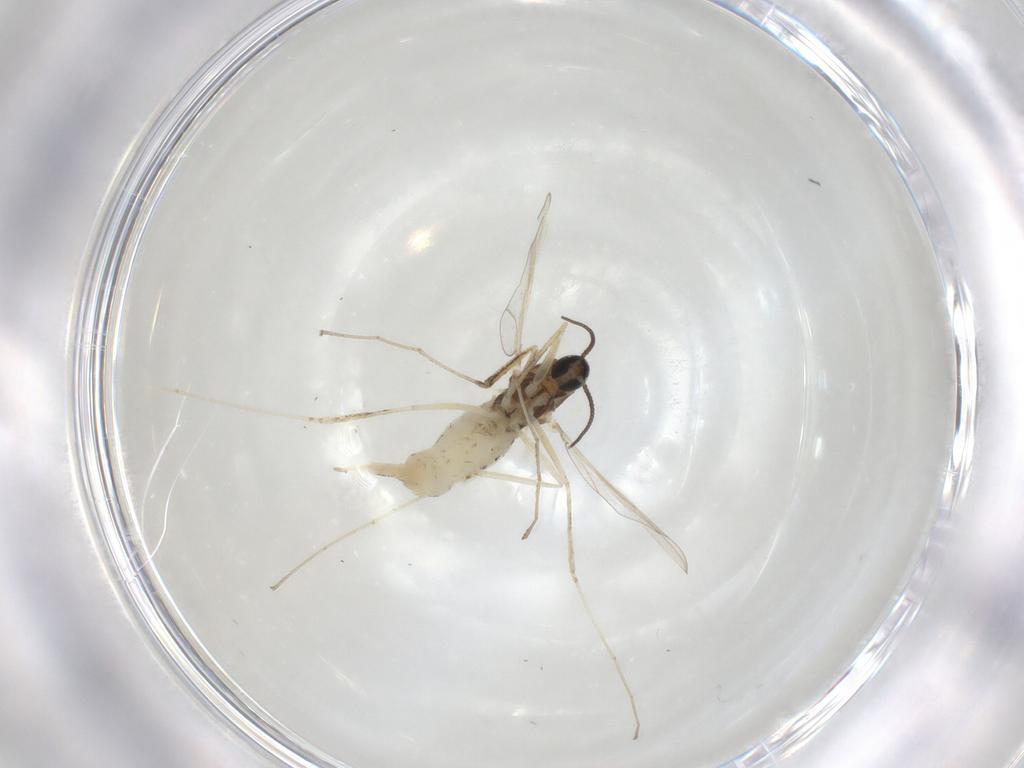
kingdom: Animalia
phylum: Arthropoda
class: Insecta
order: Diptera
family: Cecidomyiidae
